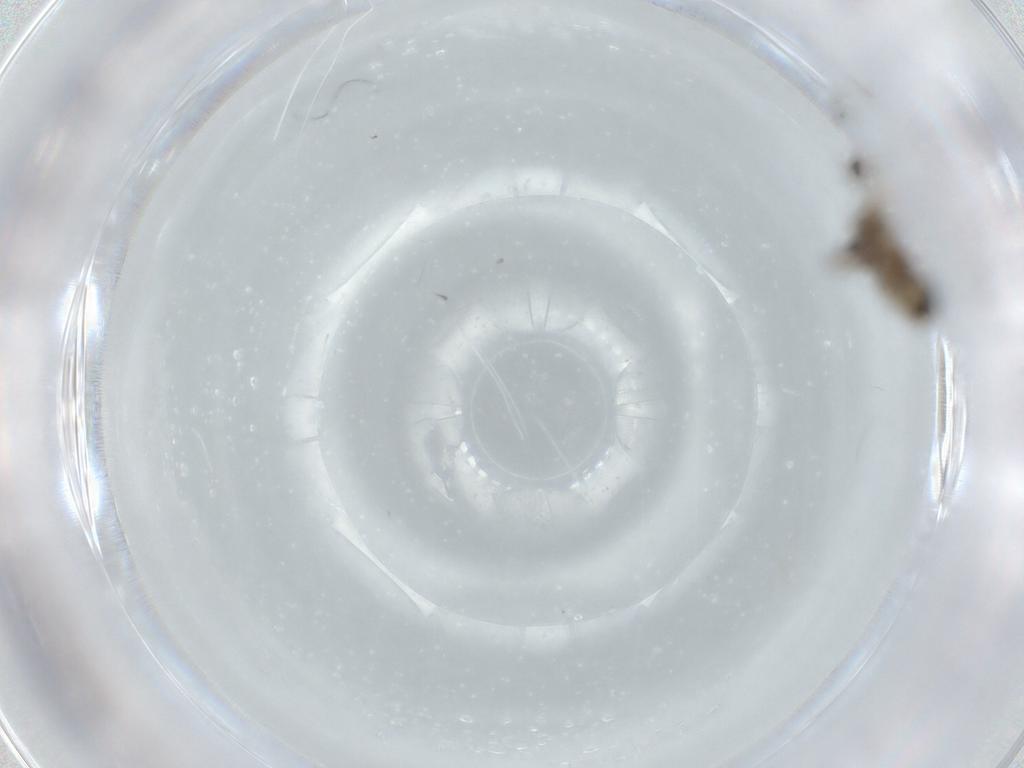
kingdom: Animalia
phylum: Arthropoda
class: Insecta
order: Diptera
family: Chironomidae
